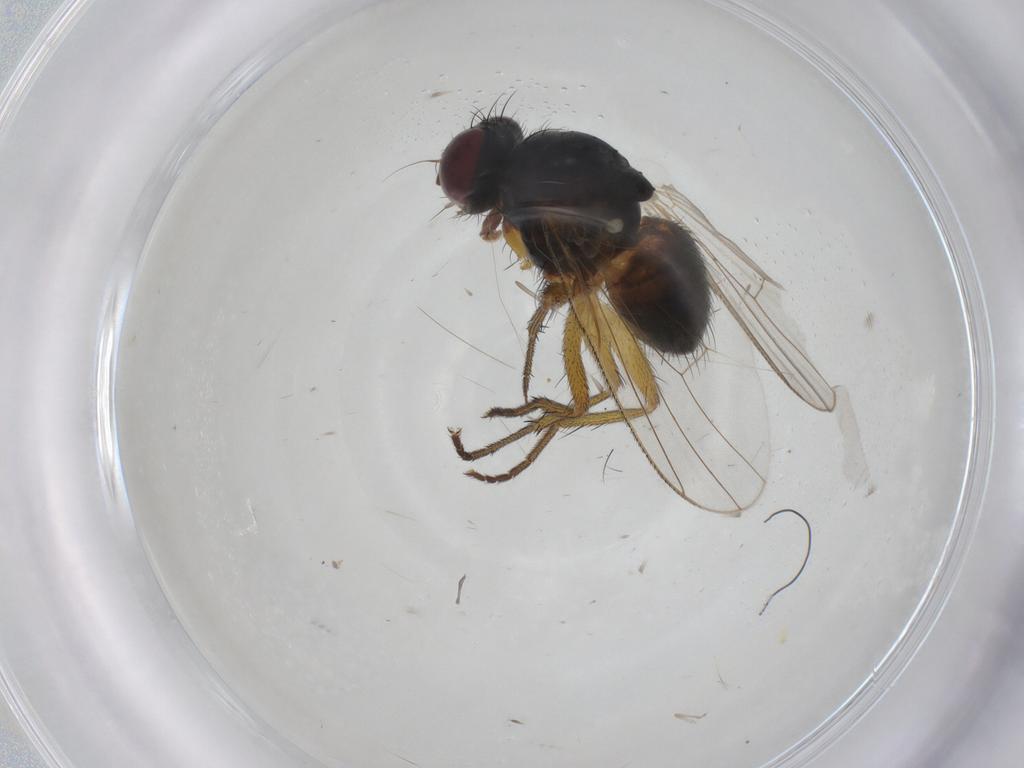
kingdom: Animalia
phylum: Arthropoda
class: Insecta
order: Diptera
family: Muscidae
